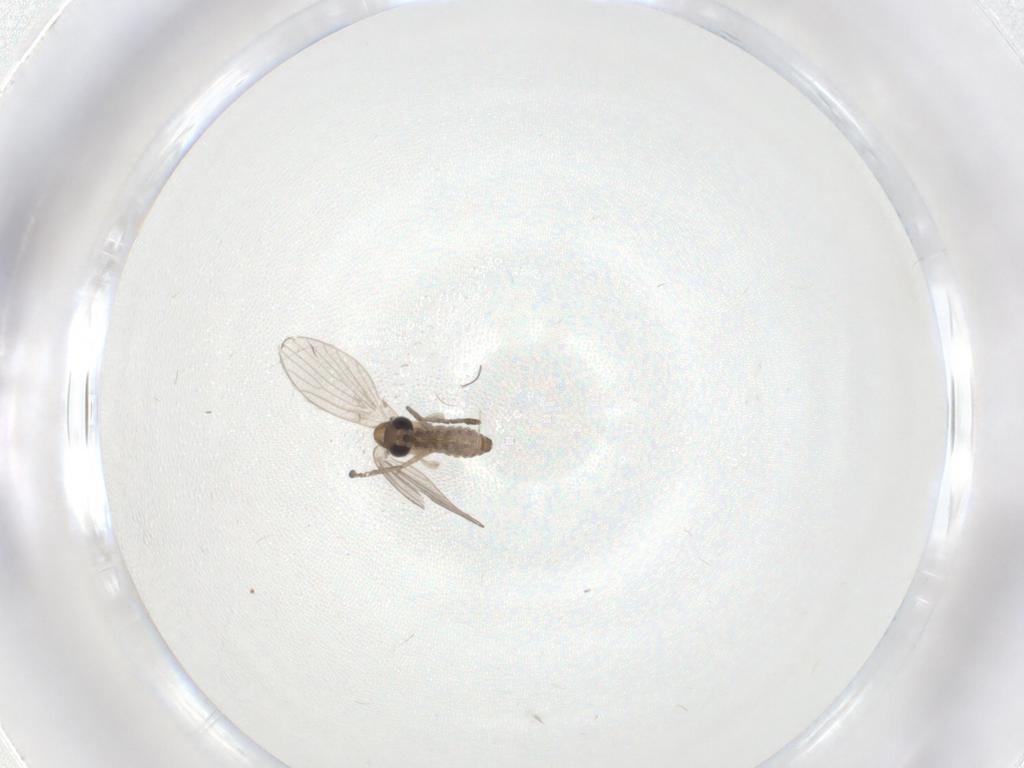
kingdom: Animalia
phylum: Arthropoda
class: Insecta
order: Diptera
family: Psychodidae
